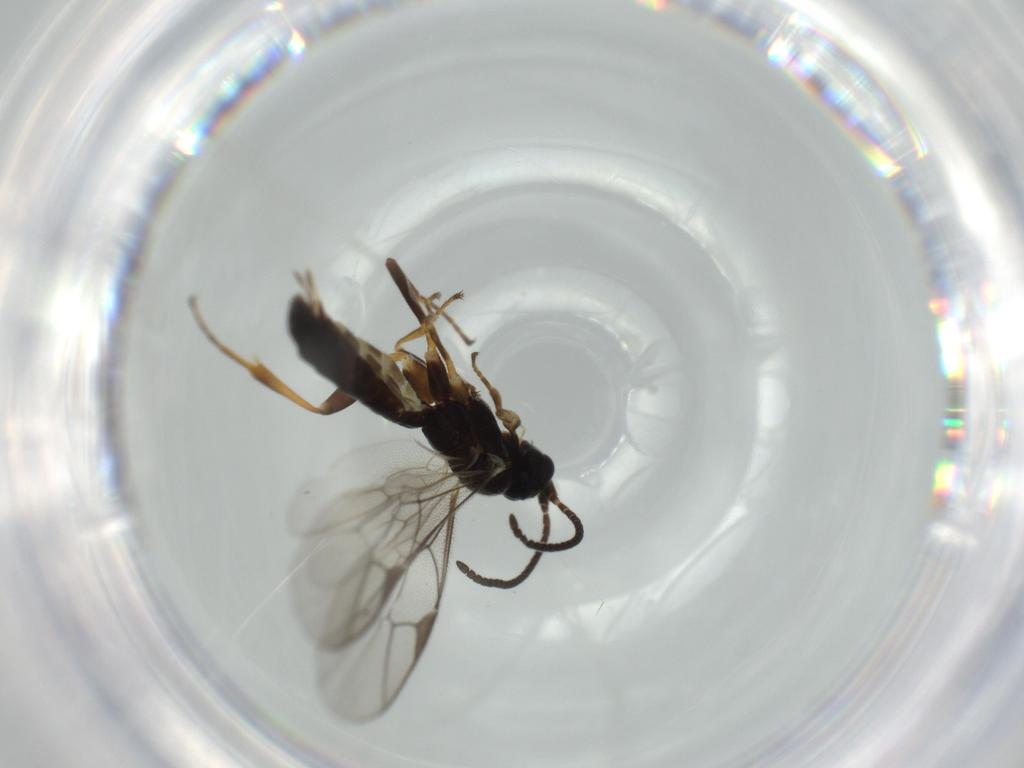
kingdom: Animalia
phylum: Arthropoda
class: Insecta
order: Hymenoptera
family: Ichneumonidae
